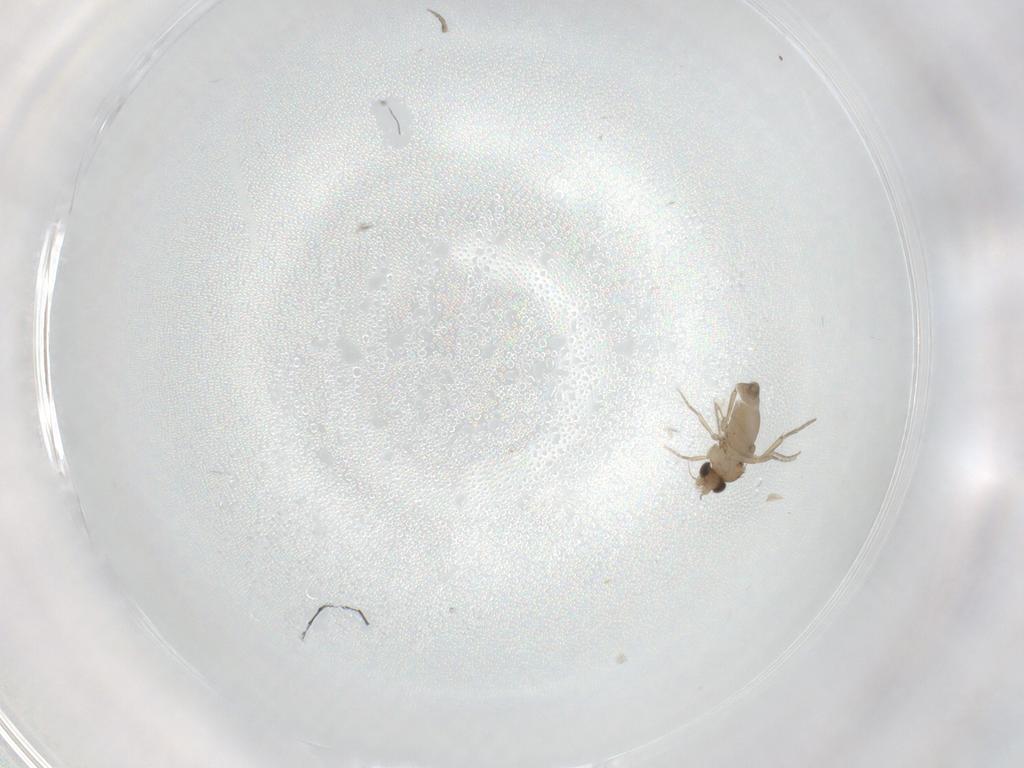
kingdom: Animalia
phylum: Arthropoda
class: Insecta
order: Diptera
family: Phoridae
